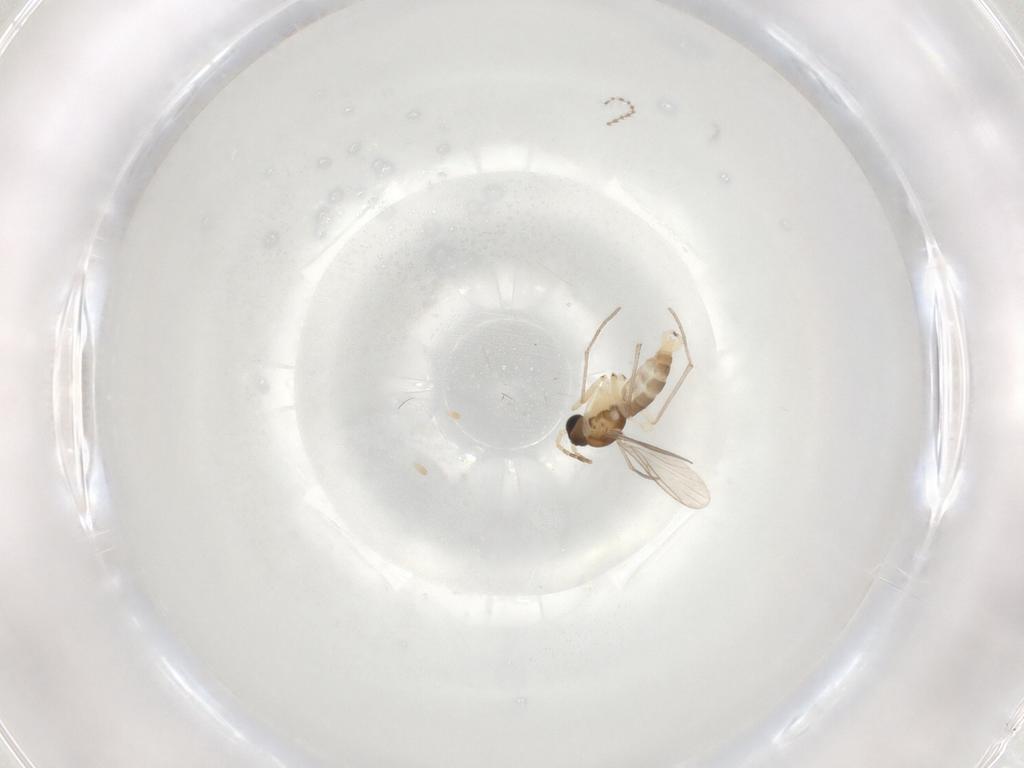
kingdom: Animalia
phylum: Arthropoda
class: Insecta
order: Diptera
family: Sciaridae
